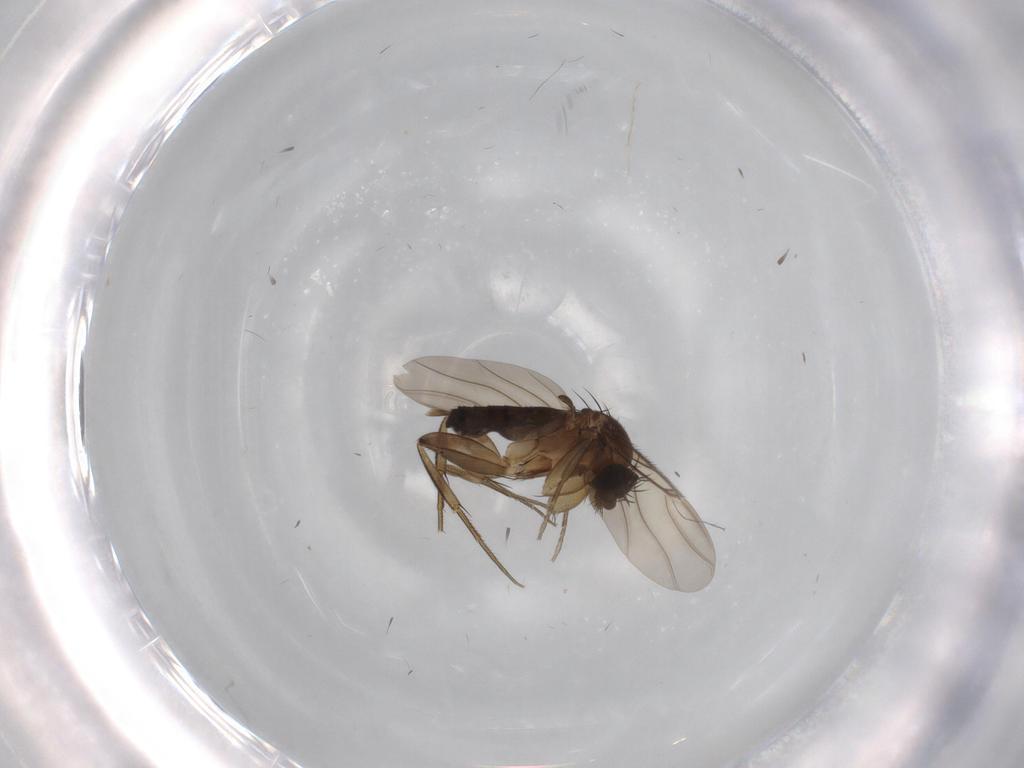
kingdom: Animalia
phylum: Arthropoda
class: Insecta
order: Diptera
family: Phoridae
